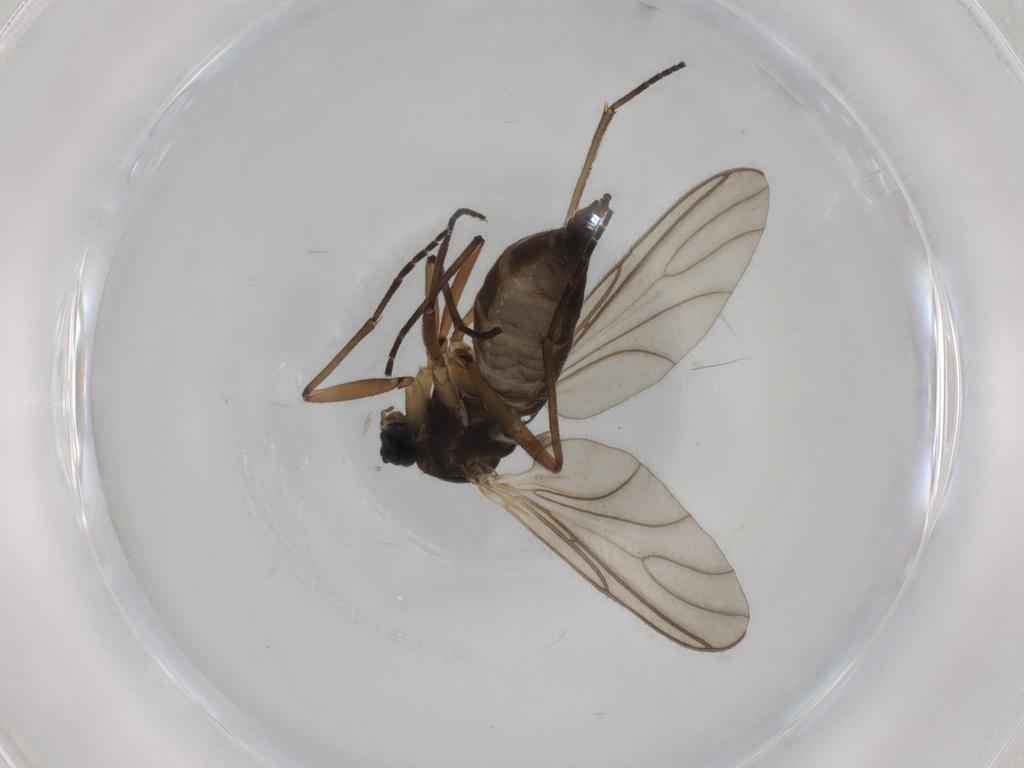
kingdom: Animalia
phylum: Arthropoda
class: Insecta
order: Diptera
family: Sciaridae
